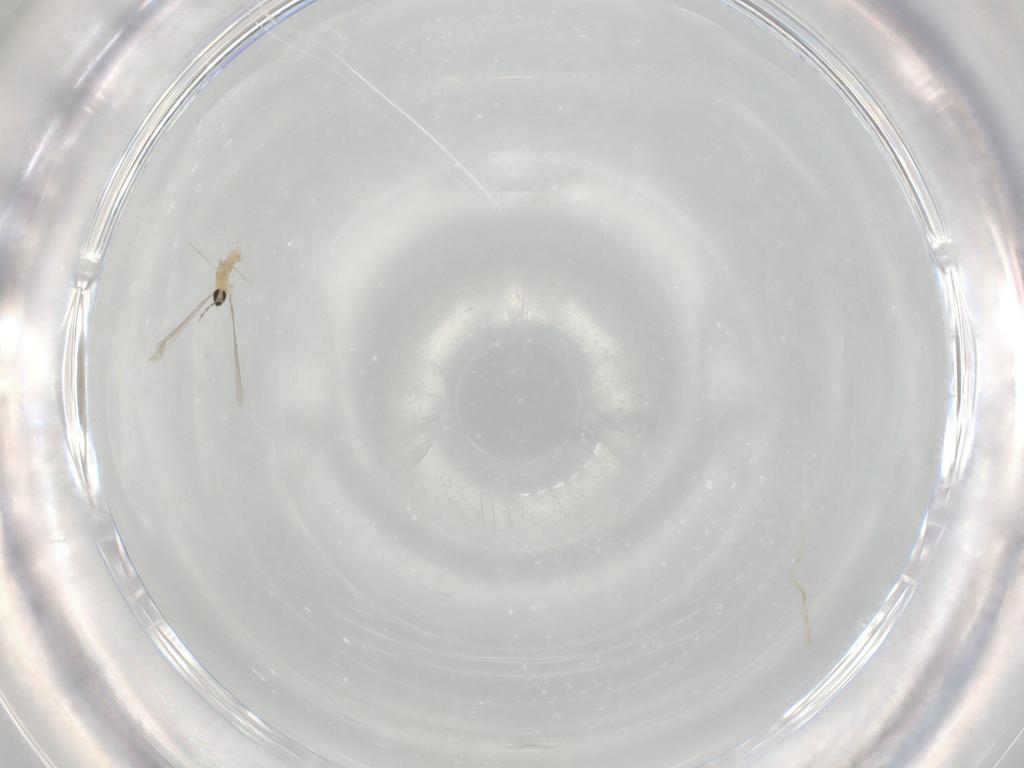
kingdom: Animalia
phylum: Arthropoda
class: Insecta
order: Diptera
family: Cecidomyiidae
